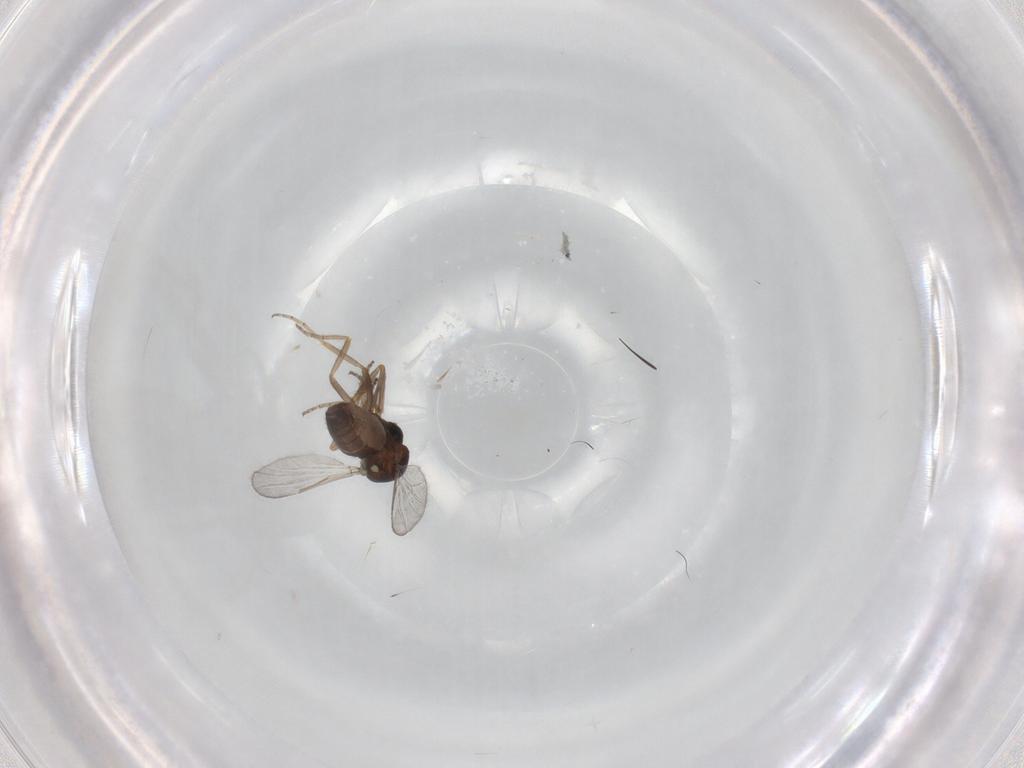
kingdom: Animalia
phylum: Arthropoda
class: Insecta
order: Diptera
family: Ceratopogonidae
